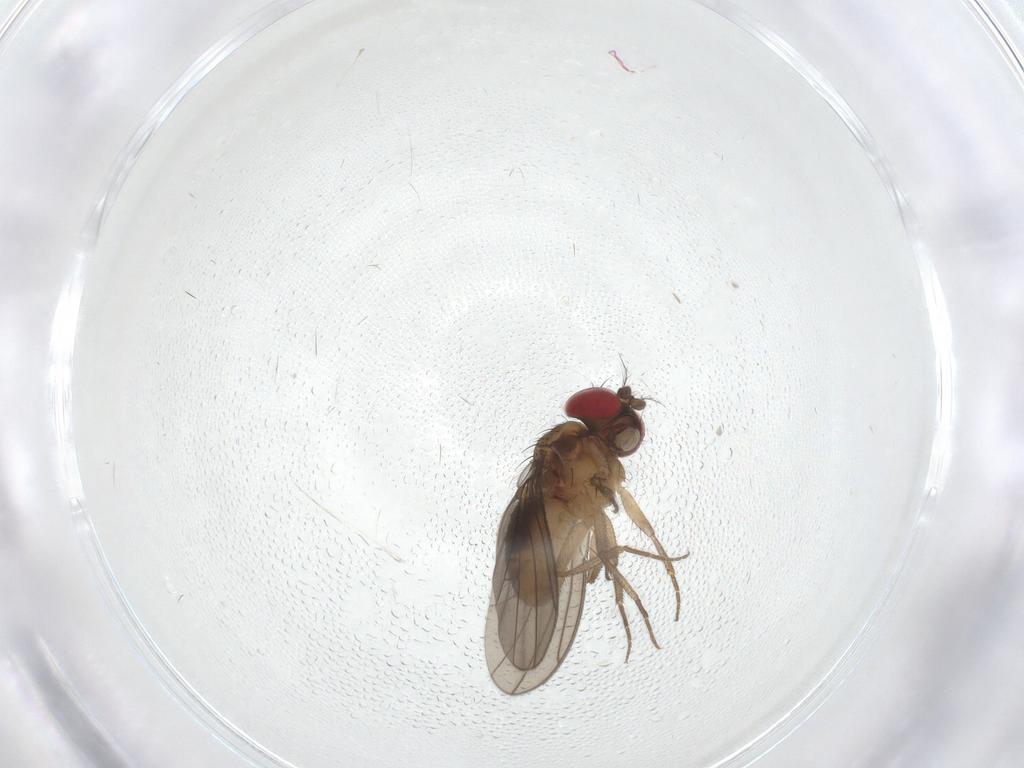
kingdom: Animalia
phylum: Arthropoda
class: Insecta
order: Diptera
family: Drosophilidae
